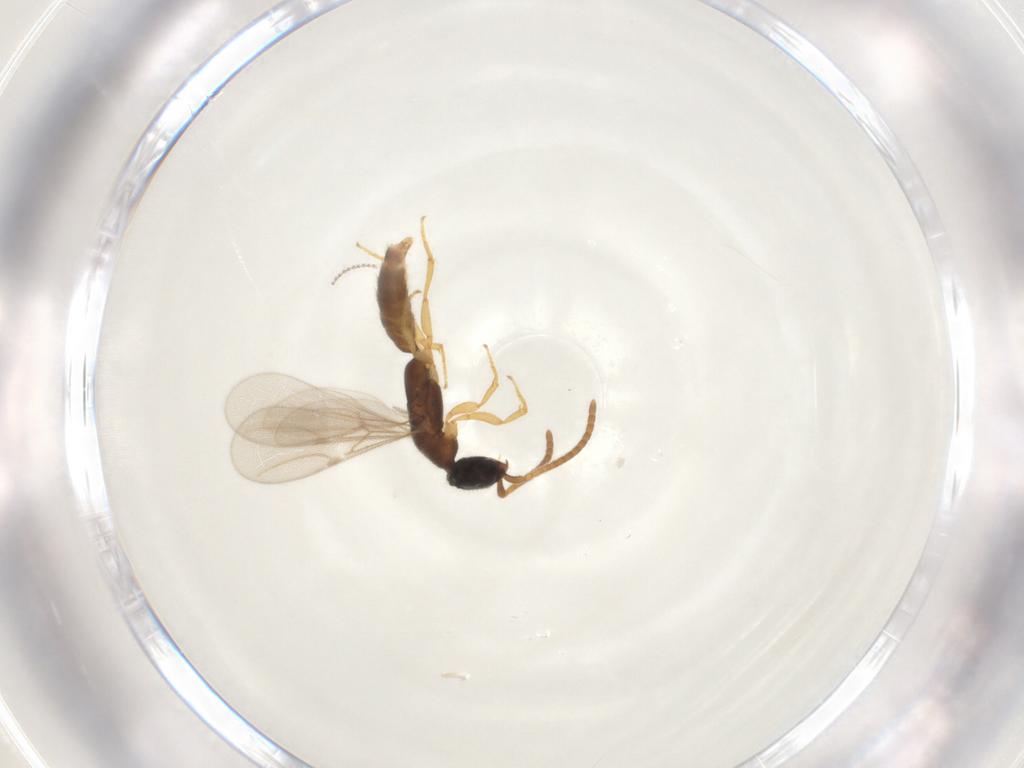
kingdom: Animalia
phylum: Arthropoda
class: Insecta
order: Hymenoptera
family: Bethylidae
